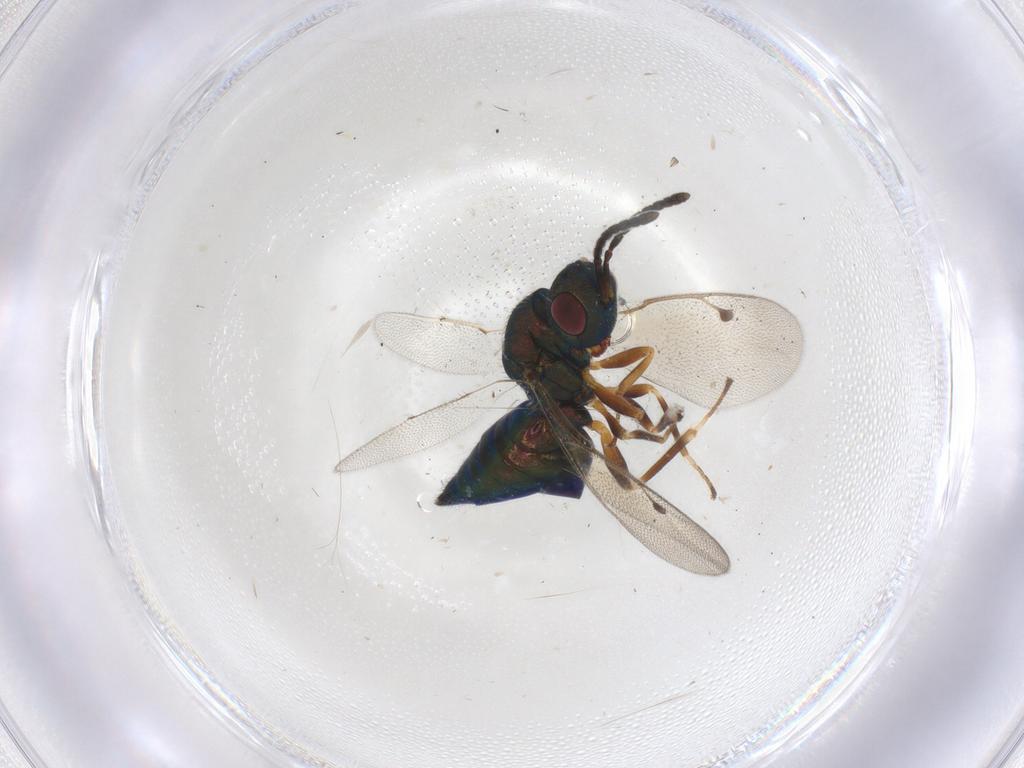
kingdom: Animalia
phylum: Arthropoda
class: Insecta
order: Hymenoptera
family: Pteromalidae
